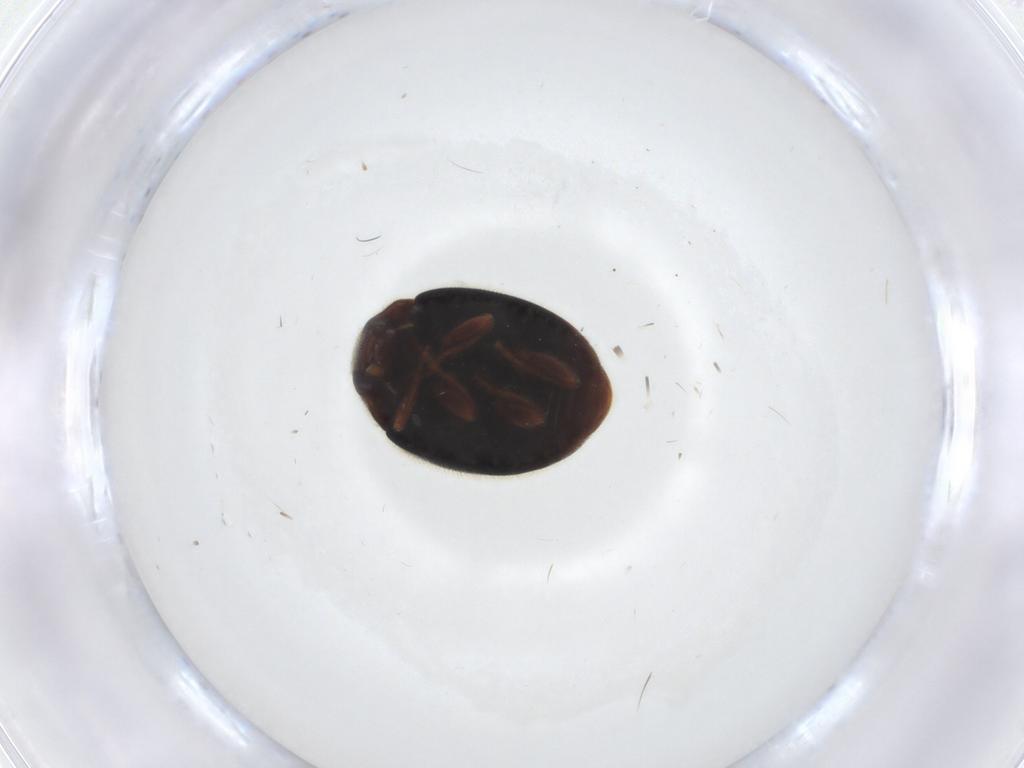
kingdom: Animalia
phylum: Arthropoda
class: Insecta
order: Coleoptera
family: Coccinellidae
